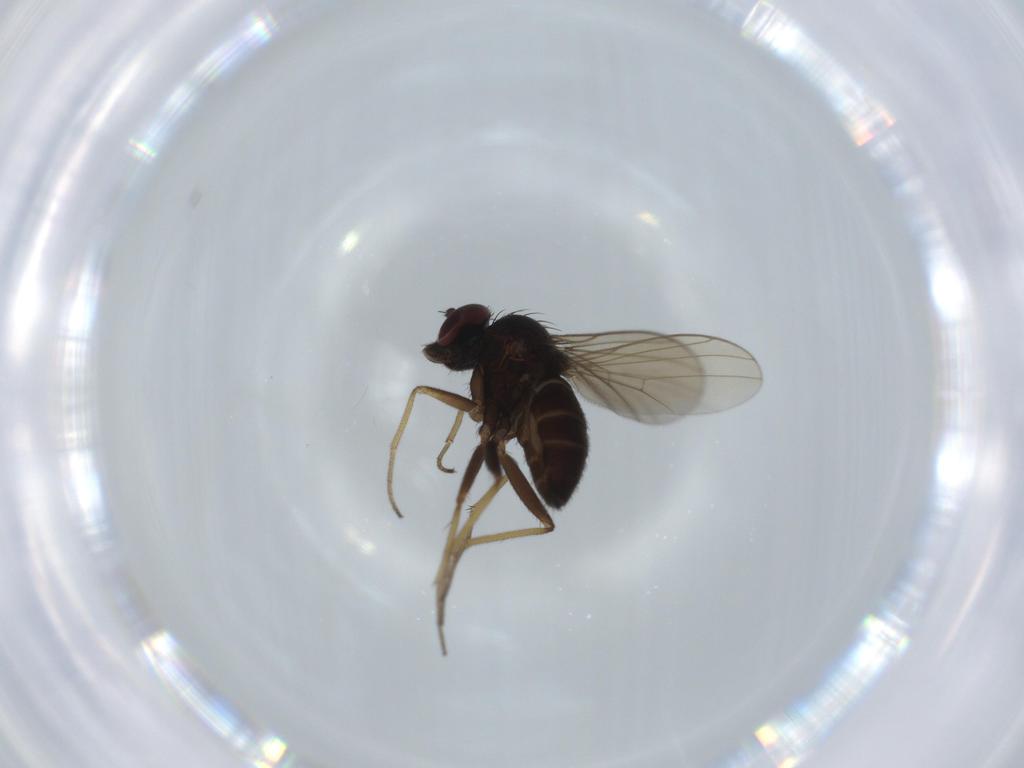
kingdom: Animalia
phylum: Arthropoda
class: Insecta
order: Diptera
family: Dolichopodidae
